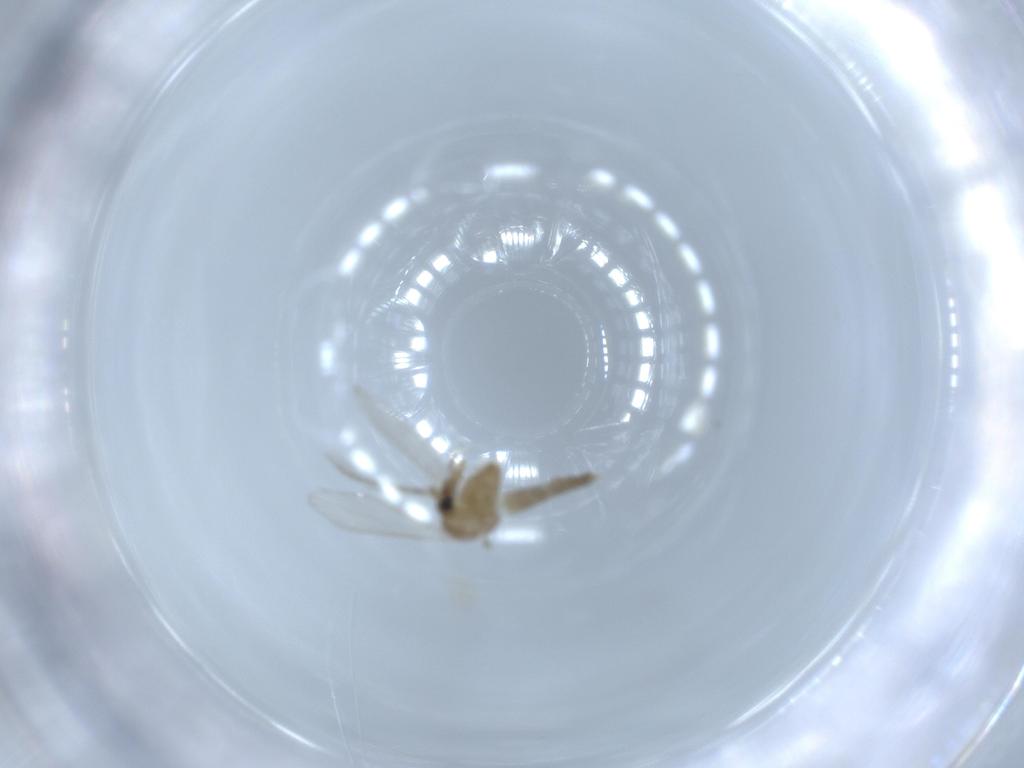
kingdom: Animalia
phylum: Arthropoda
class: Insecta
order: Diptera
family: Psychodidae
